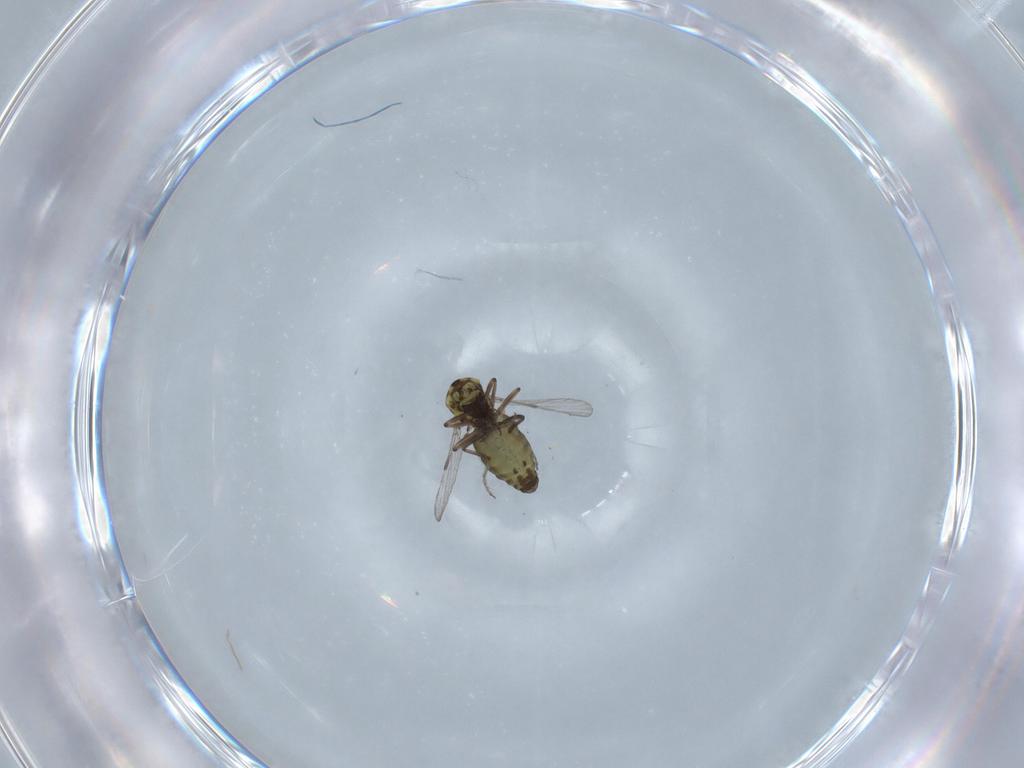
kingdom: Animalia
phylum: Arthropoda
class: Insecta
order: Diptera
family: Ceratopogonidae
